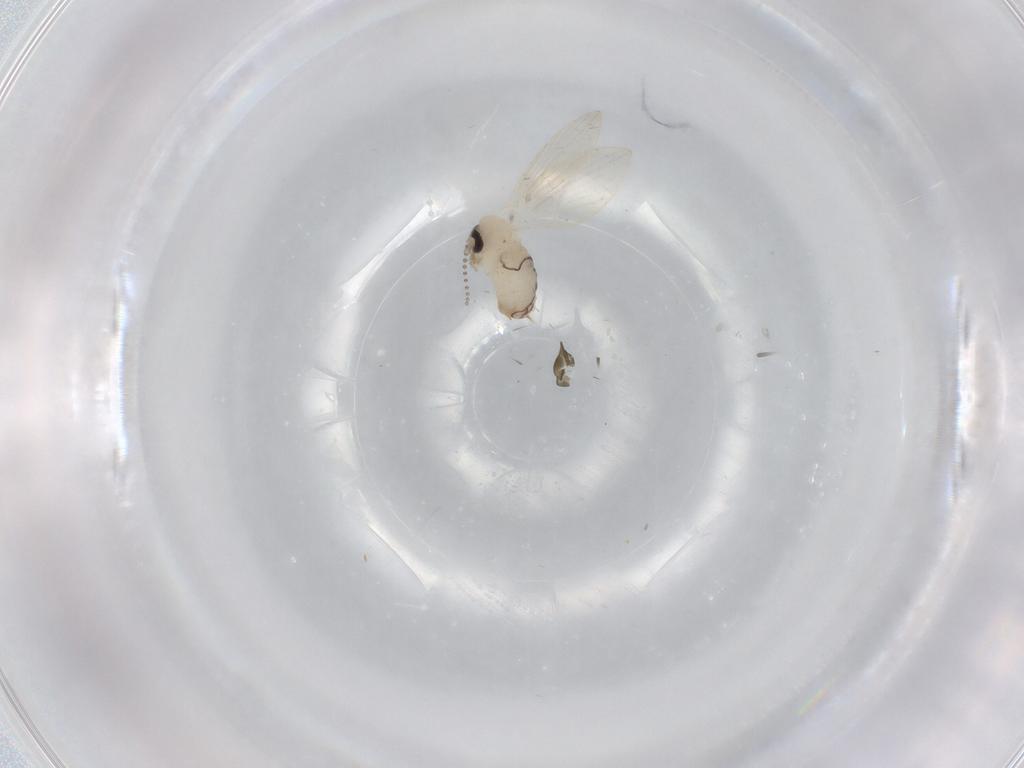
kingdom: Animalia
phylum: Arthropoda
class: Insecta
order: Diptera
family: Psychodidae
